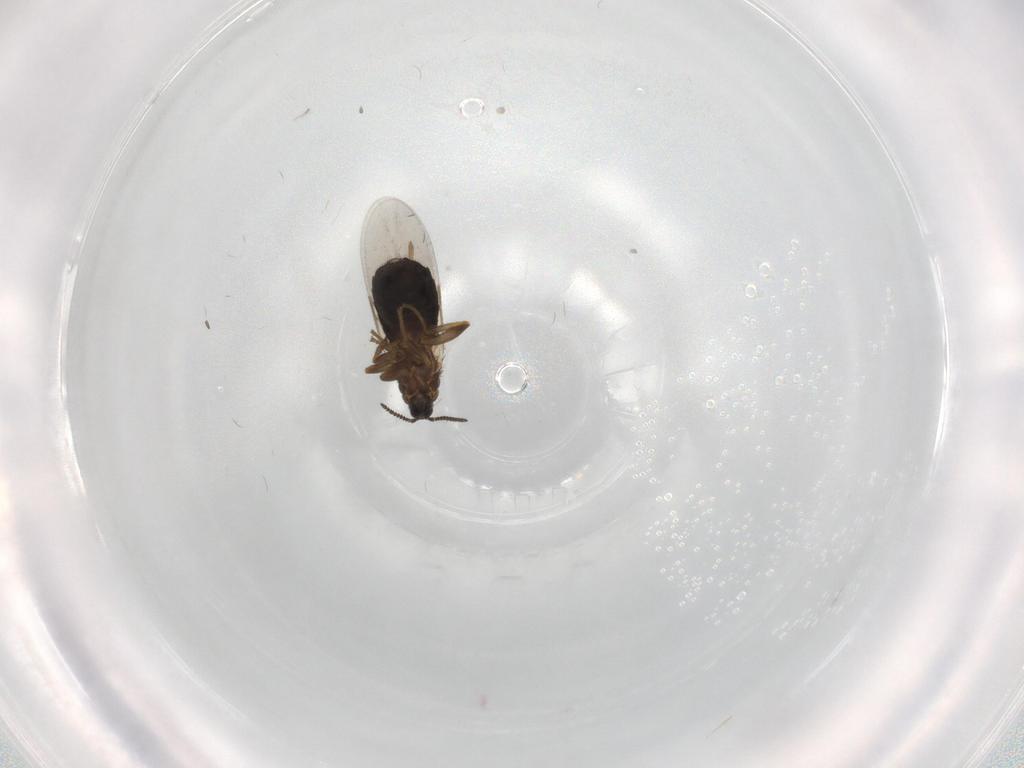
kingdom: Animalia
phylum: Arthropoda
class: Insecta
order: Diptera
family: Scatopsidae
